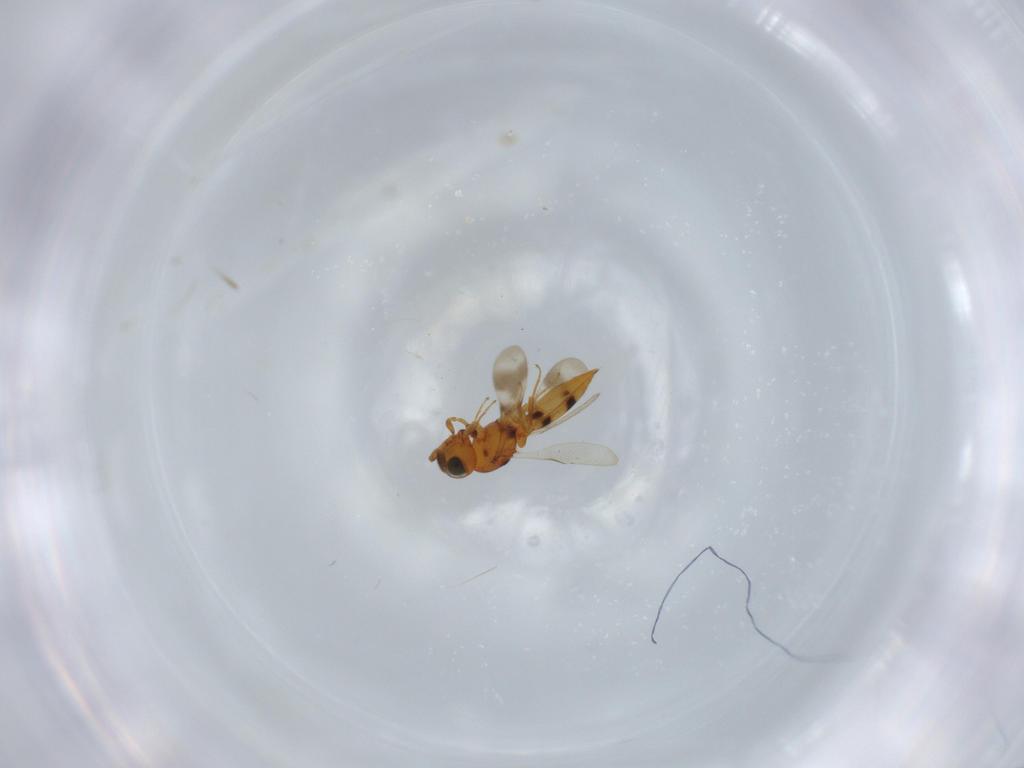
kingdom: Animalia
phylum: Arthropoda
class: Insecta
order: Hymenoptera
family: Scelionidae
